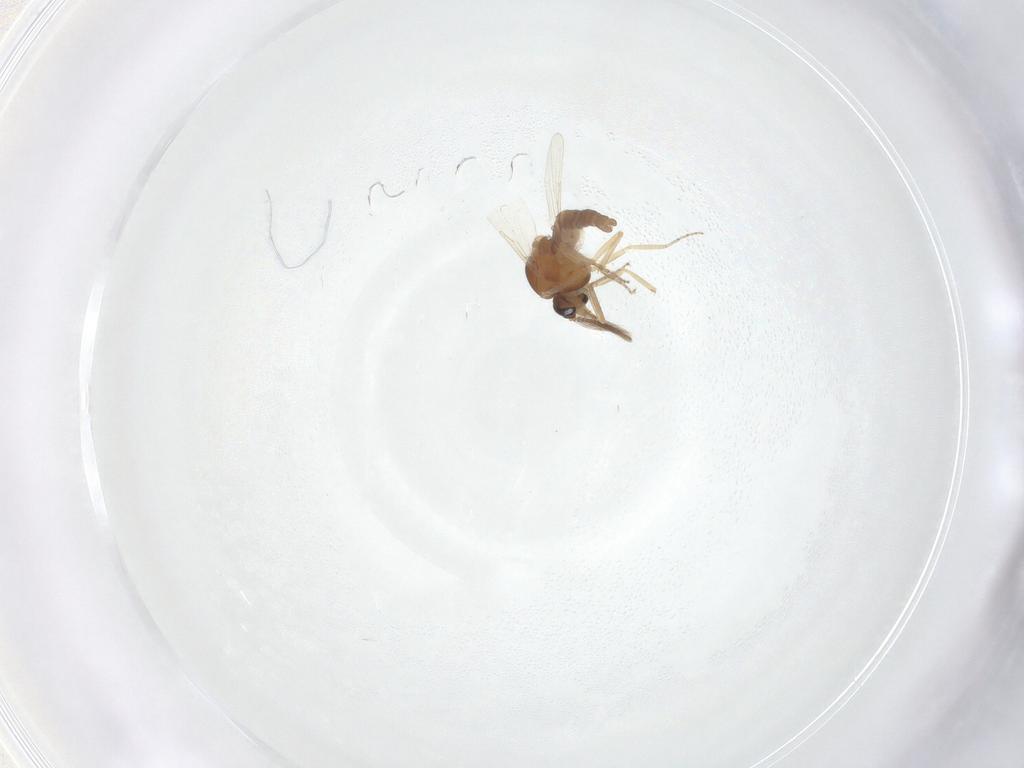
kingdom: Animalia
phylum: Arthropoda
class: Insecta
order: Diptera
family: Ceratopogonidae
